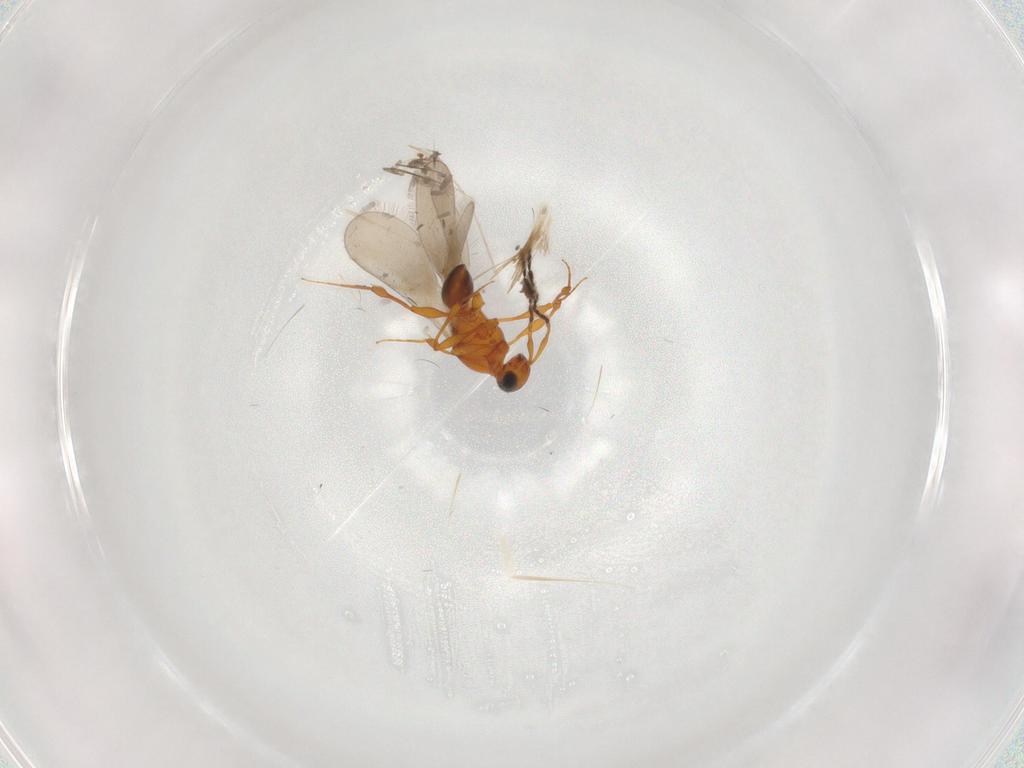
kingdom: Animalia
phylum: Arthropoda
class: Insecta
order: Hymenoptera
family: Platygastridae
